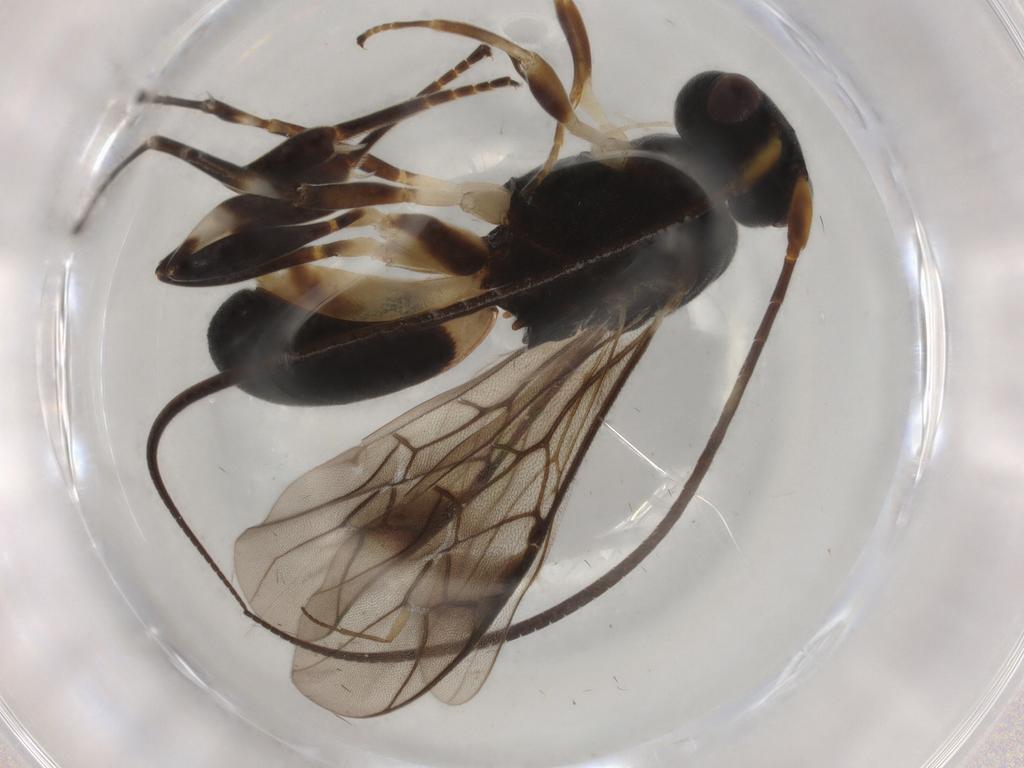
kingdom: Animalia
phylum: Arthropoda
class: Insecta
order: Hymenoptera
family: Braconidae
